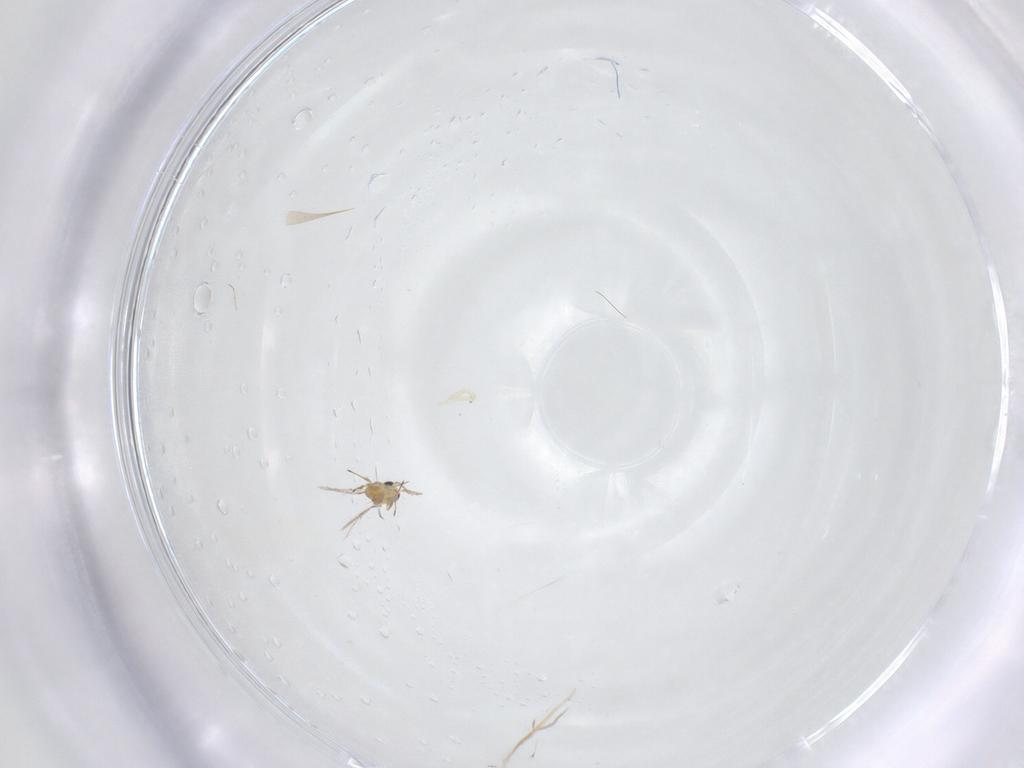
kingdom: Animalia
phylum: Arthropoda
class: Insecta
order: Hymenoptera
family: Trichogrammatidae
